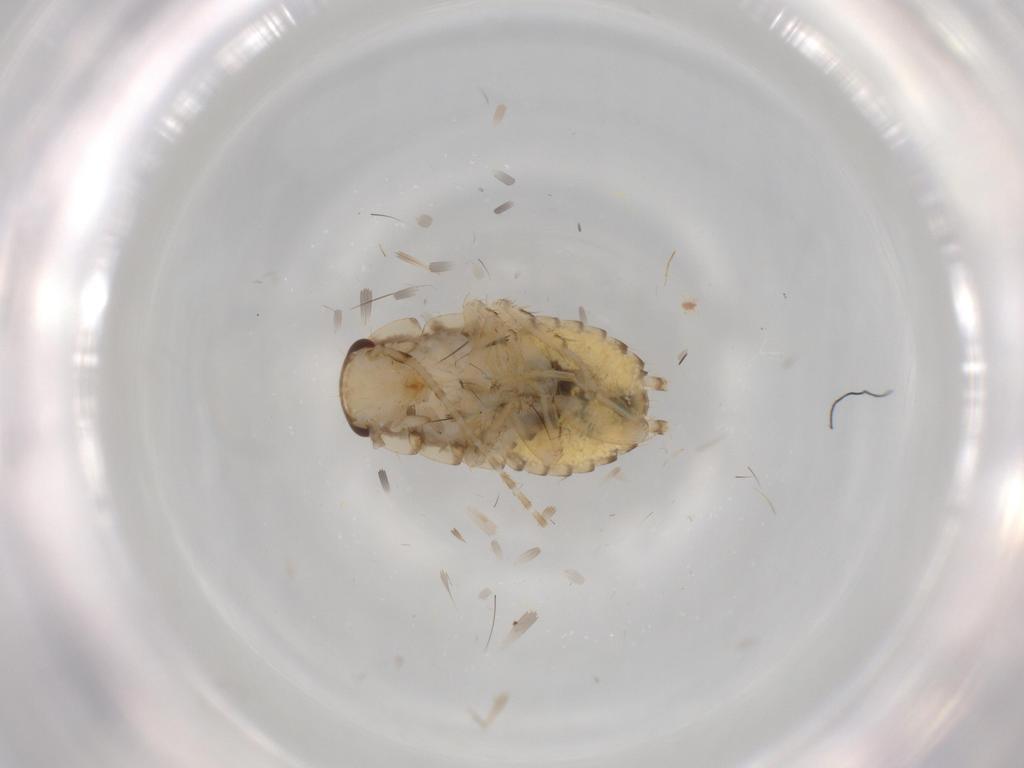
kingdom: Animalia
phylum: Arthropoda
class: Insecta
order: Blattodea
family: Ectobiidae
